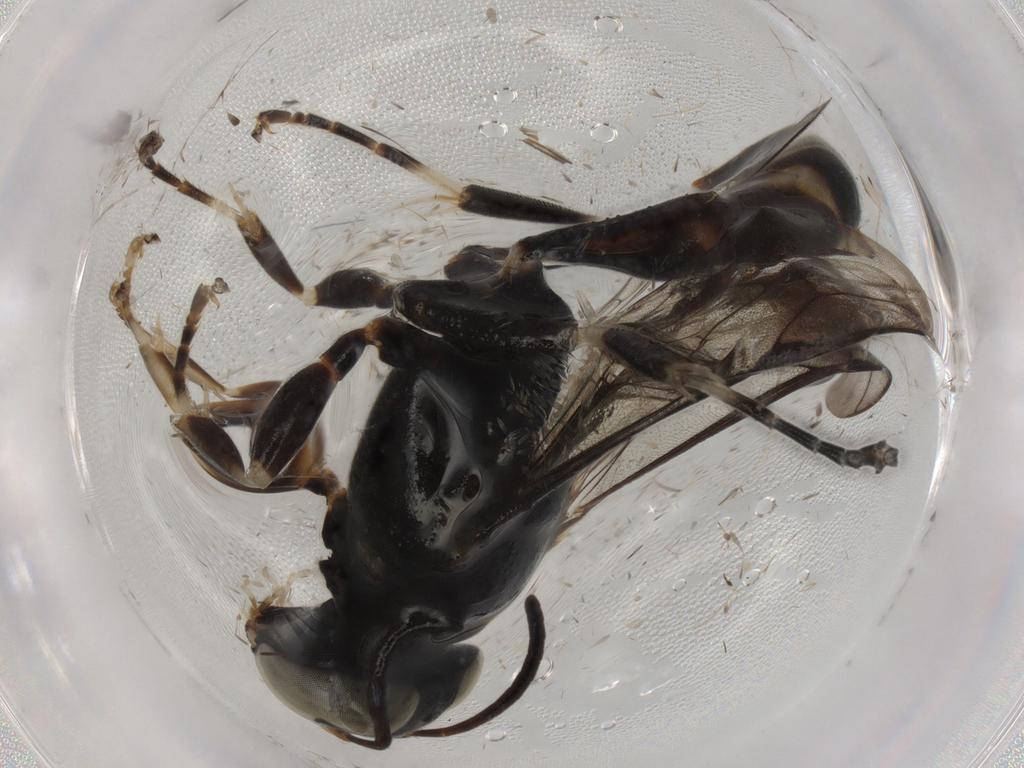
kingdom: Animalia
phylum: Arthropoda
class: Insecta
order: Hymenoptera
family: Crabronidae
